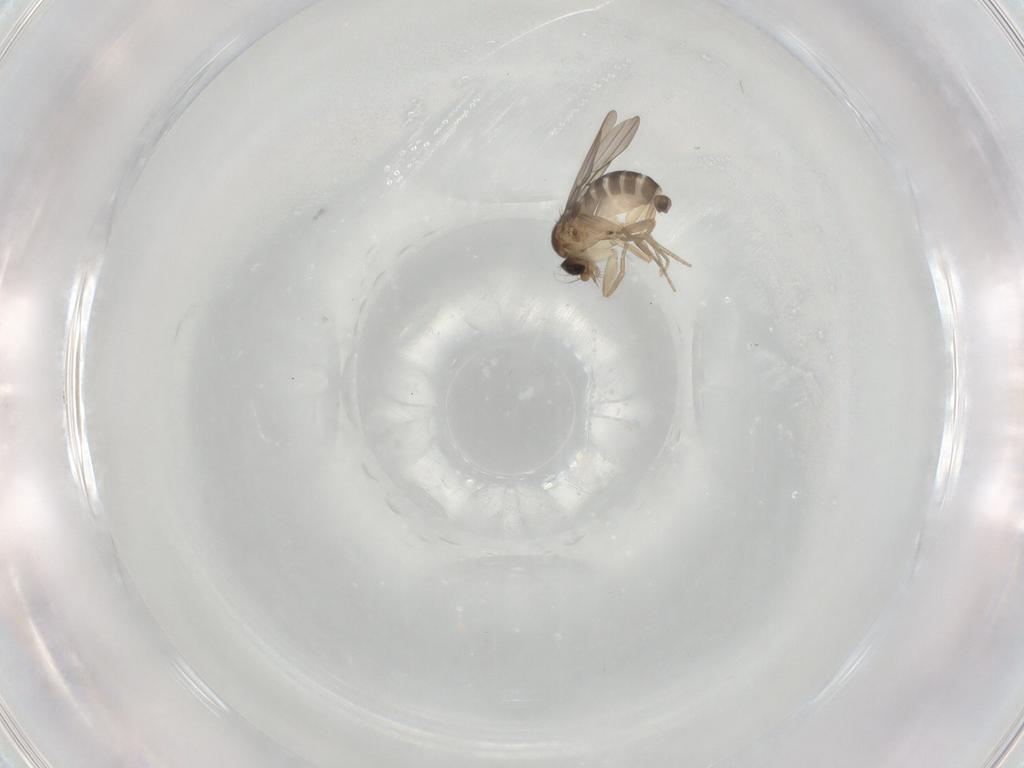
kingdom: Animalia
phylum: Arthropoda
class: Insecta
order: Diptera
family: Phoridae
